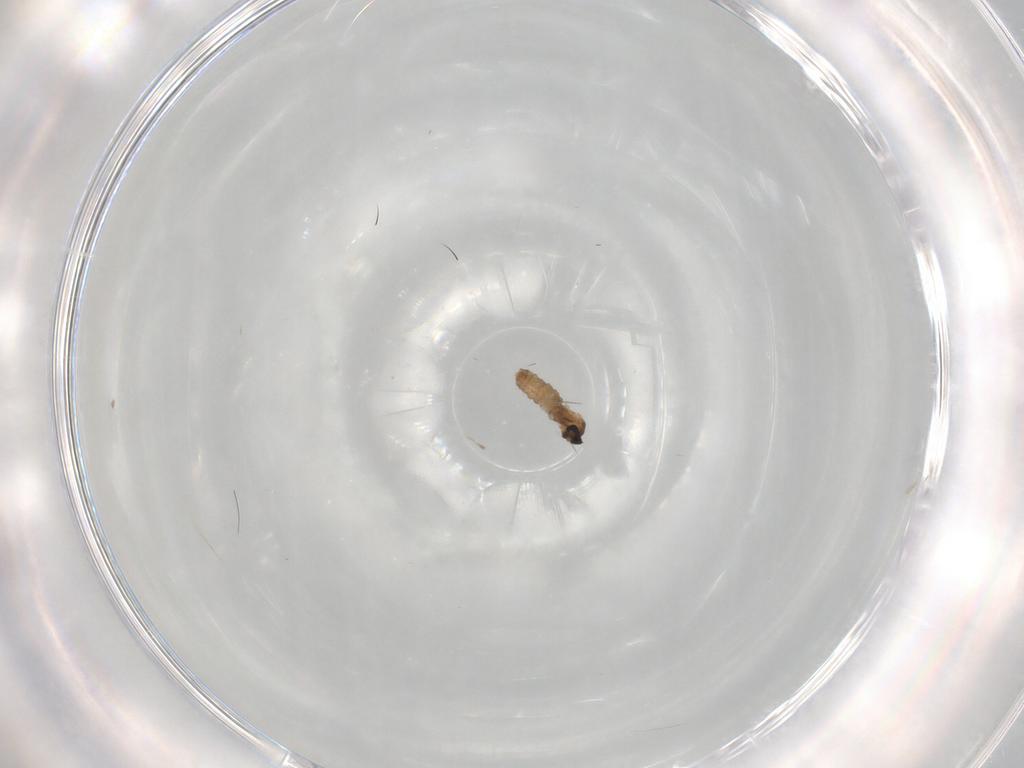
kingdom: Animalia
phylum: Arthropoda
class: Insecta
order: Diptera
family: Cecidomyiidae
